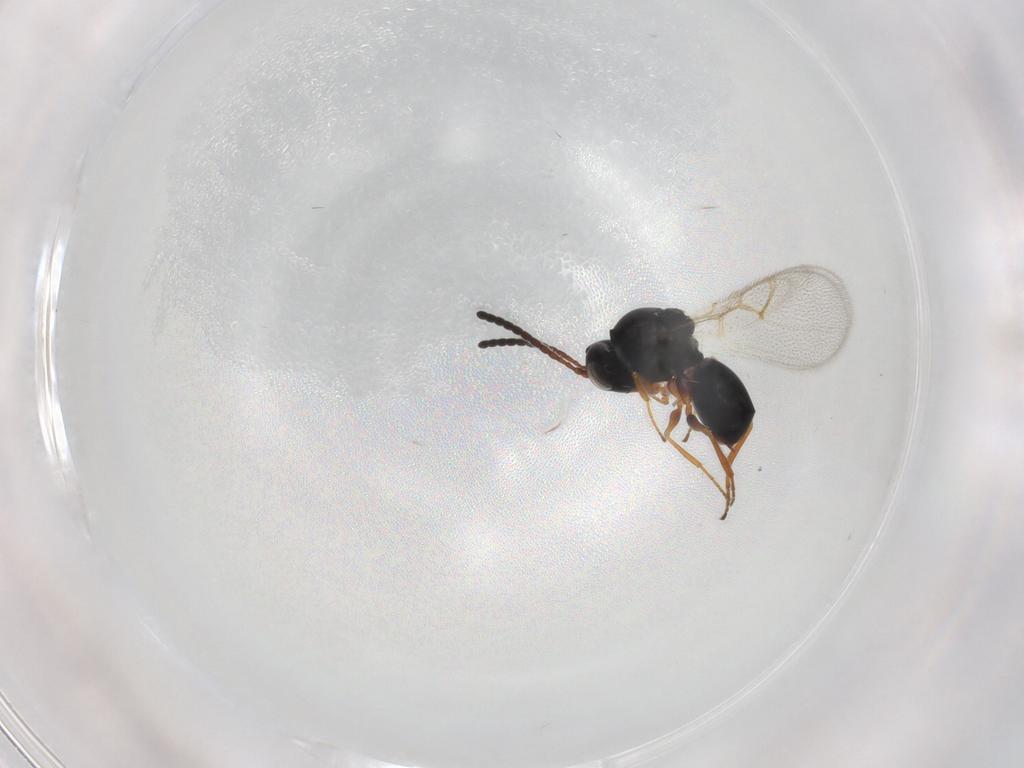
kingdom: Animalia
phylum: Arthropoda
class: Insecta
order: Hymenoptera
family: Figitidae
